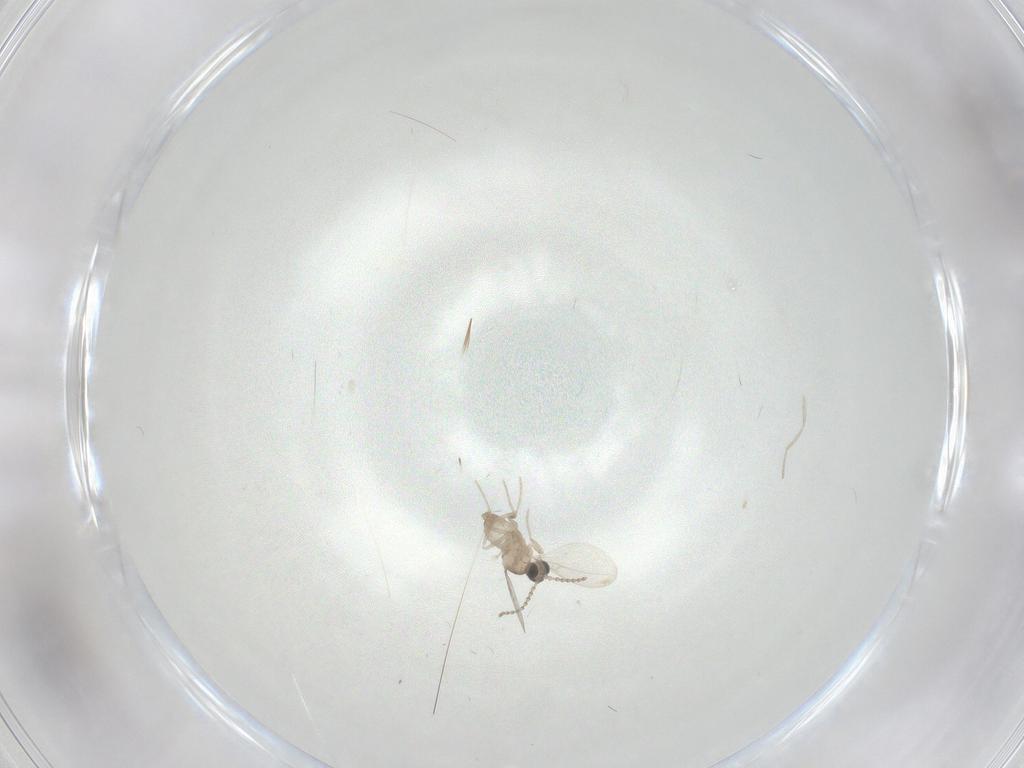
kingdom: Animalia
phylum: Arthropoda
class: Insecta
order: Diptera
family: Cecidomyiidae
